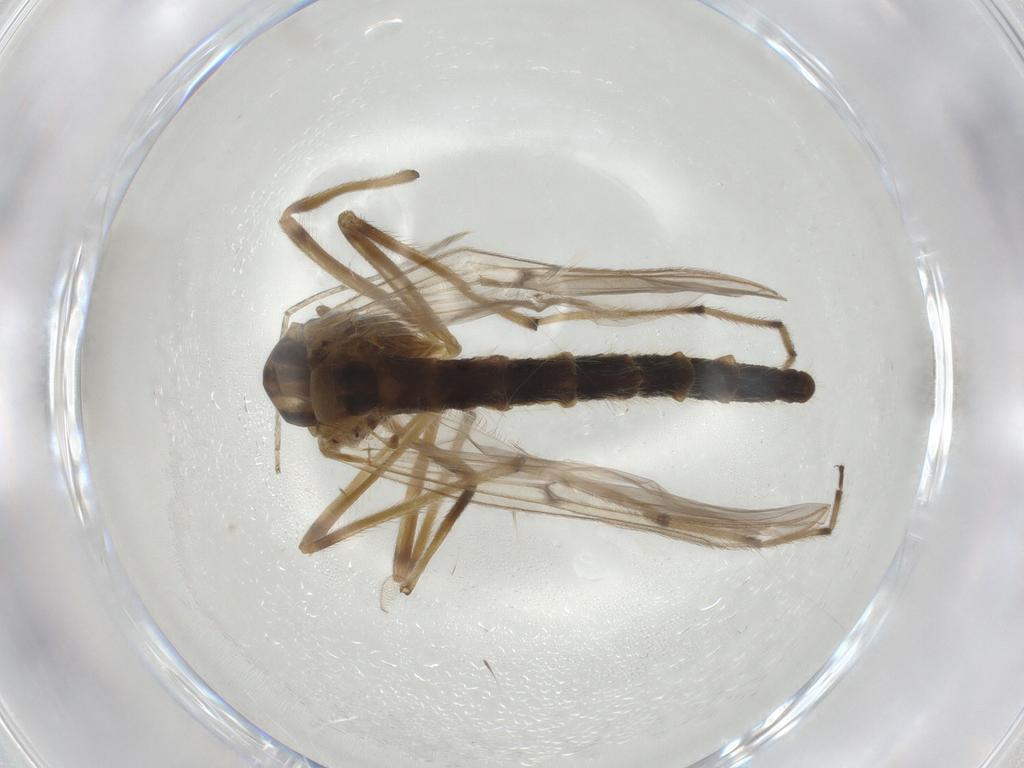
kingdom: Animalia
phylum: Arthropoda
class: Insecta
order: Diptera
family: Chironomidae
